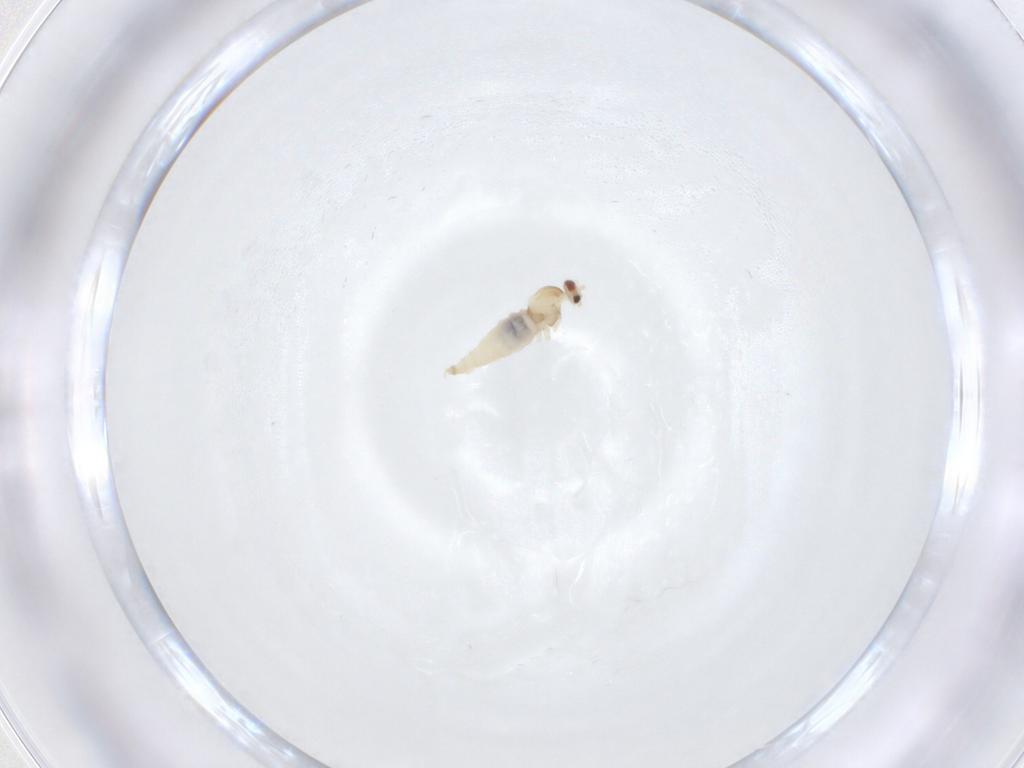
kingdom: Animalia
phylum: Arthropoda
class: Insecta
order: Diptera
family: Cecidomyiidae
